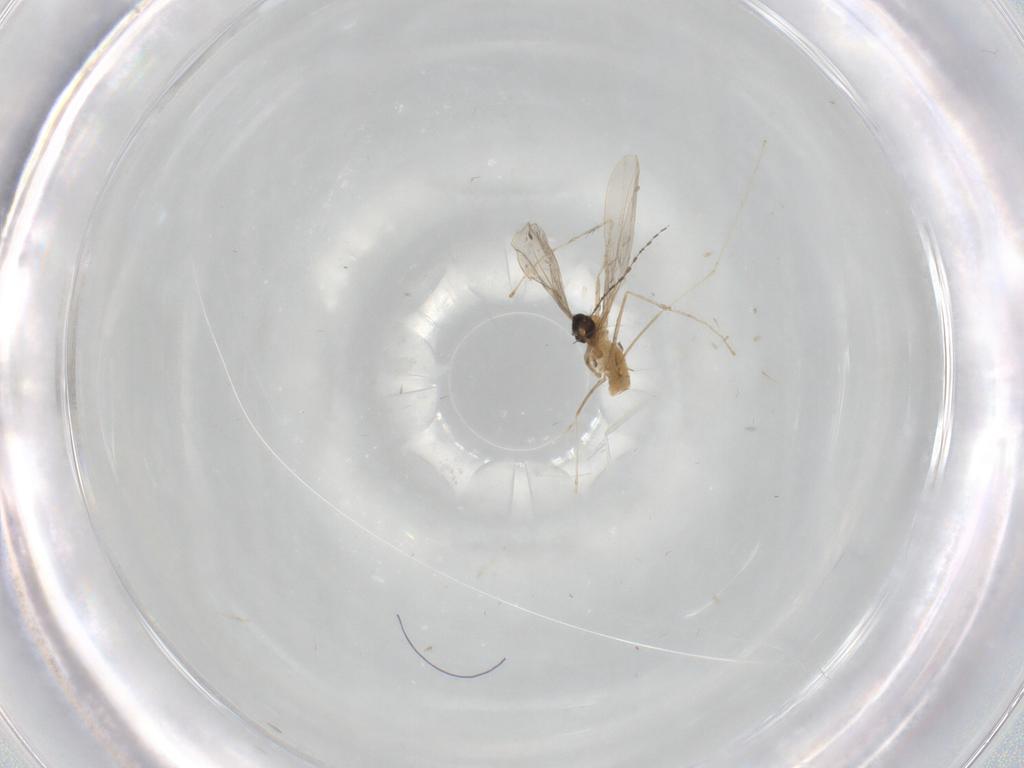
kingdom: Animalia
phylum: Arthropoda
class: Insecta
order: Diptera
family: Cecidomyiidae
